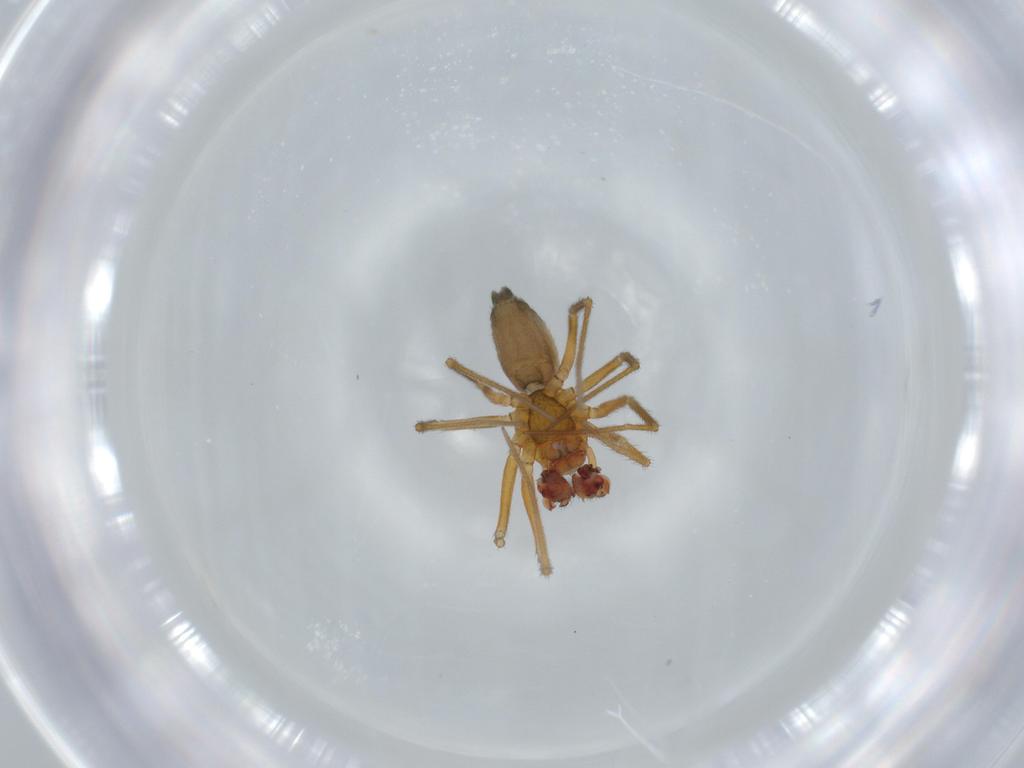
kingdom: Animalia
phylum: Arthropoda
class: Arachnida
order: Araneae
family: Linyphiidae
